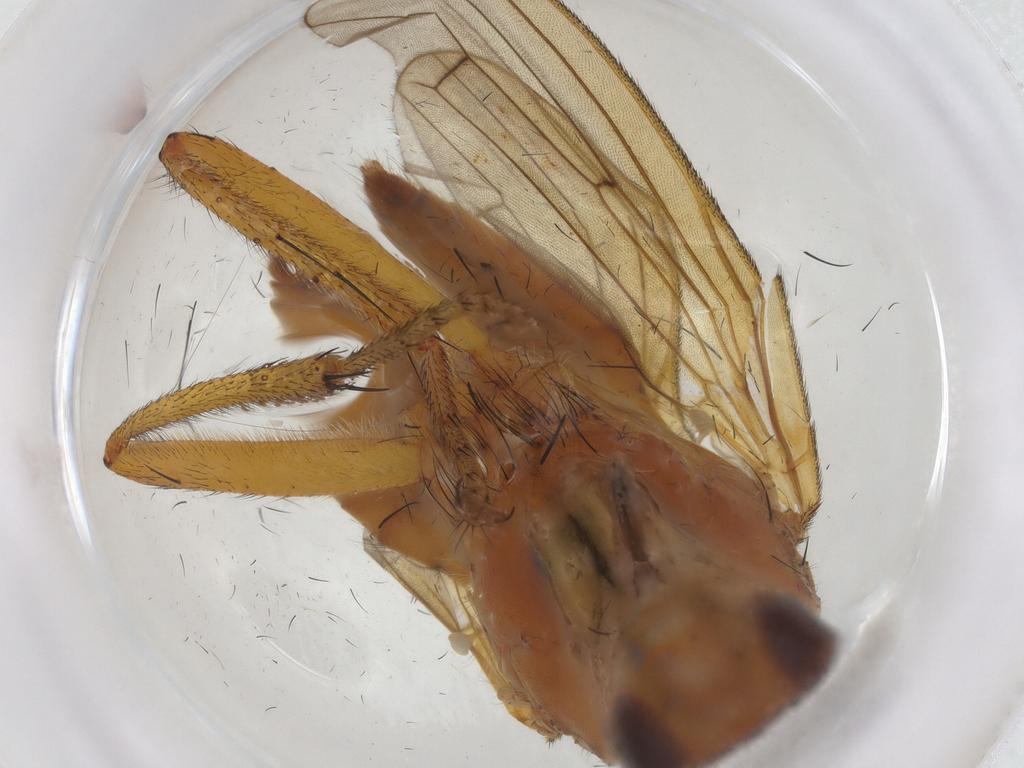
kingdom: Animalia
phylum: Arthropoda
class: Insecta
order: Diptera
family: Scathophagidae
